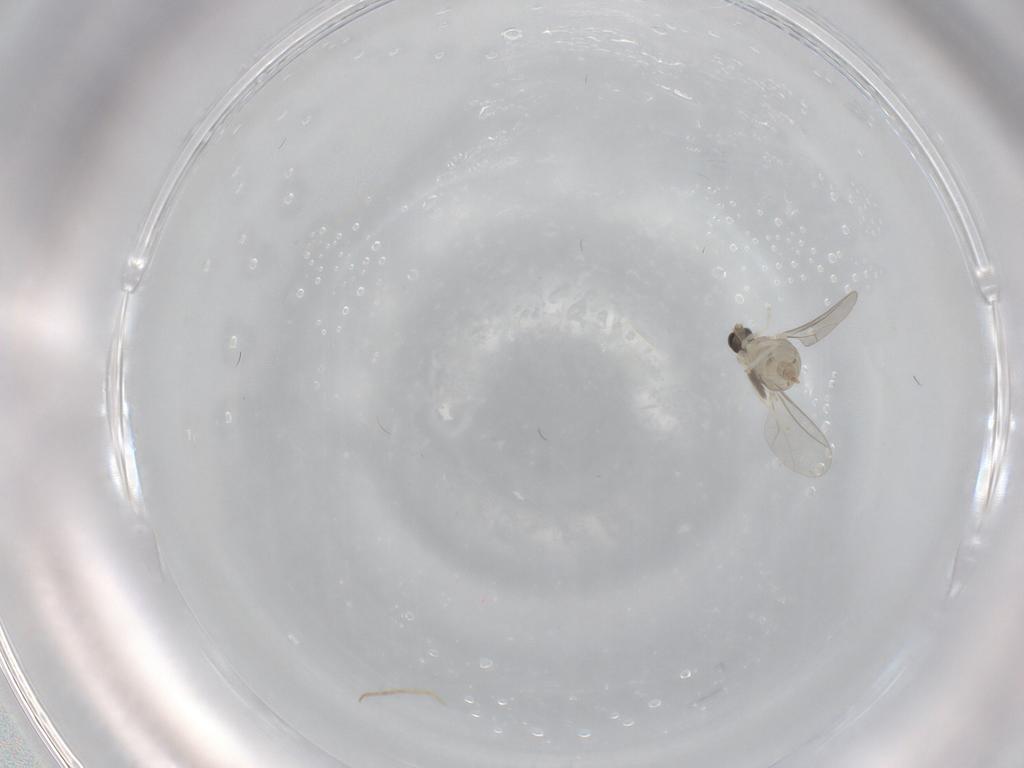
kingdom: Animalia
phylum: Arthropoda
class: Insecta
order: Diptera
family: Cecidomyiidae
